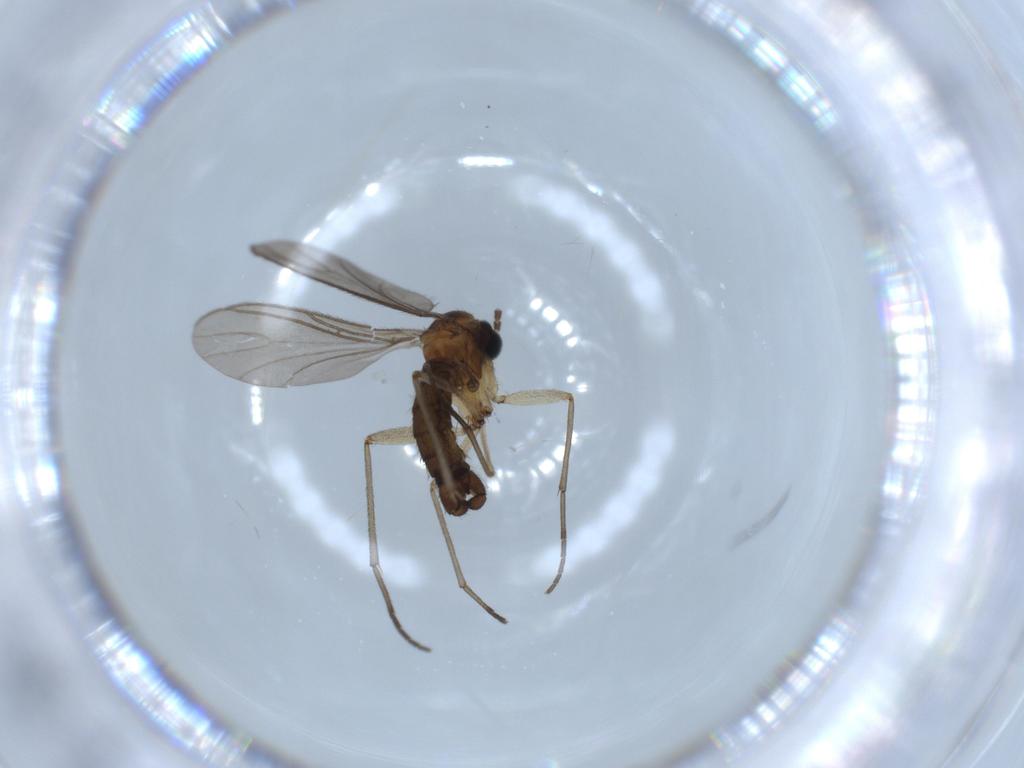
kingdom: Animalia
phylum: Arthropoda
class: Insecta
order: Diptera
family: Sciaridae
